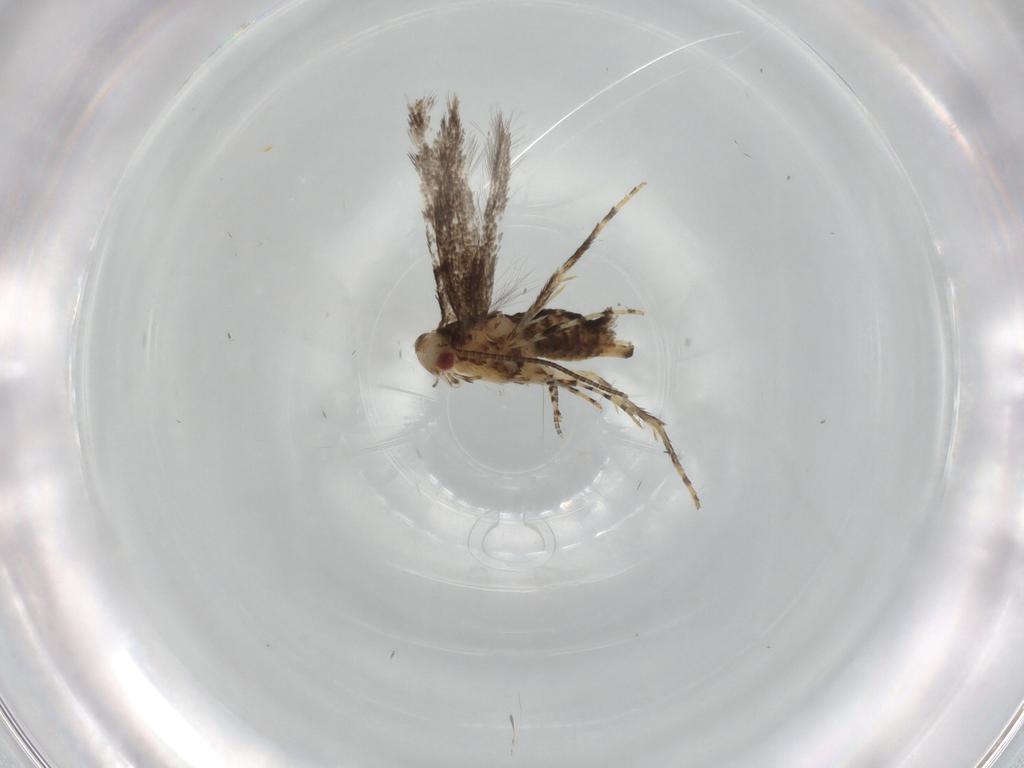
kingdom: Animalia
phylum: Arthropoda
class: Insecta
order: Lepidoptera
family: Gracillariidae
